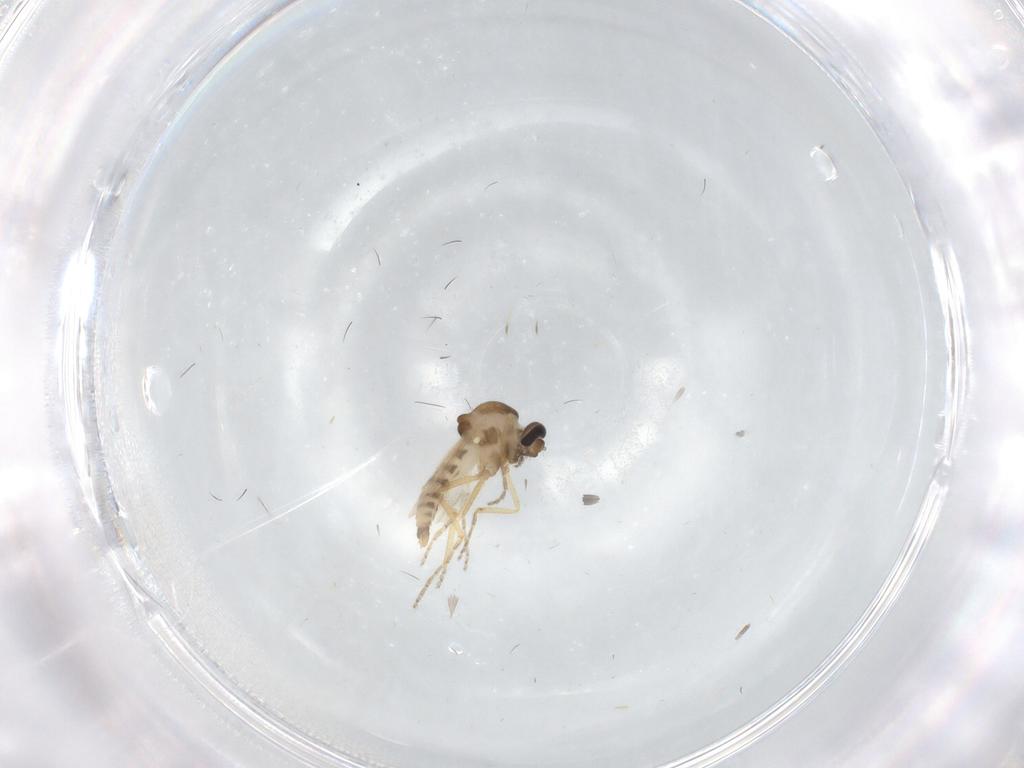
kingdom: Animalia
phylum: Arthropoda
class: Insecta
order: Diptera
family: Ceratopogonidae
